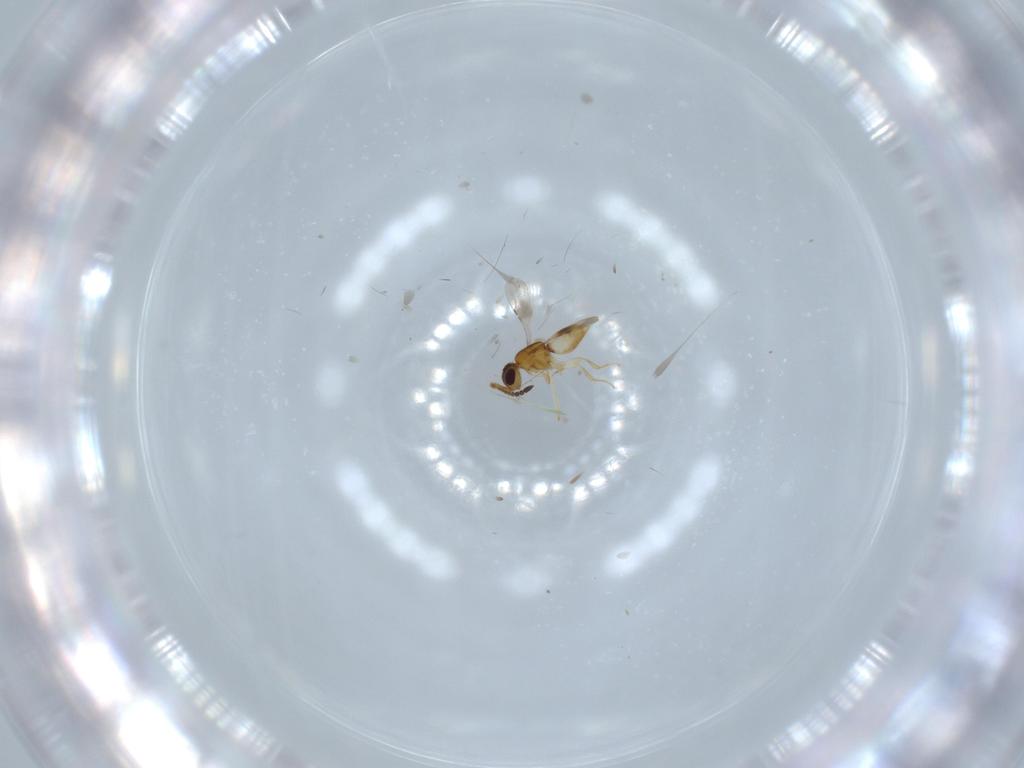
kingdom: Animalia
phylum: Arthropoda
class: Insecta
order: Hymenoptera
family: Ceraphronidae
